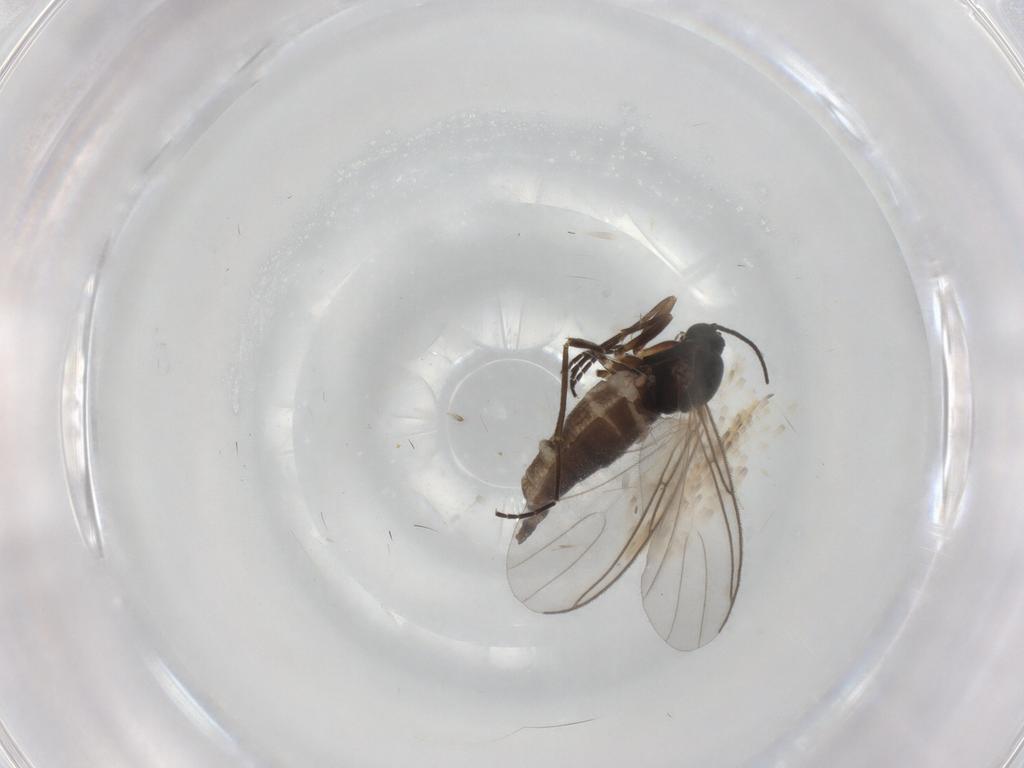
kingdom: Animalia
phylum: Arthropoda
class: Insecta
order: Diptera
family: Sciaridae
